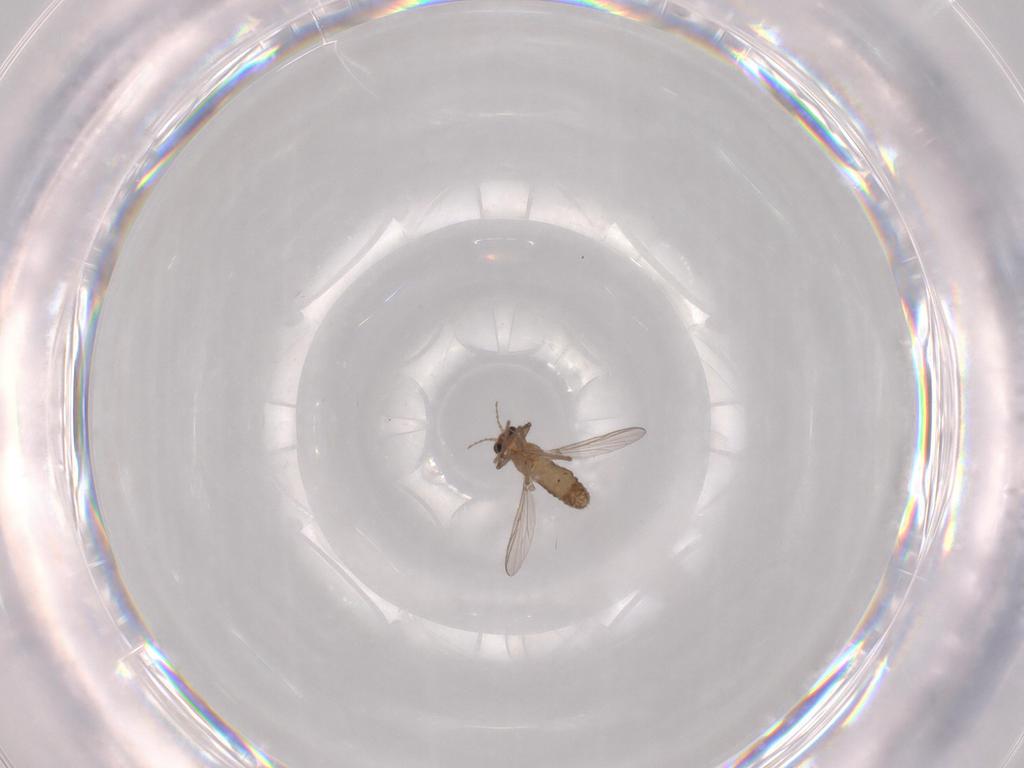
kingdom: Animalia
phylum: Arthropoda
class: Insecta
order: Diptera
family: Chironomidae
